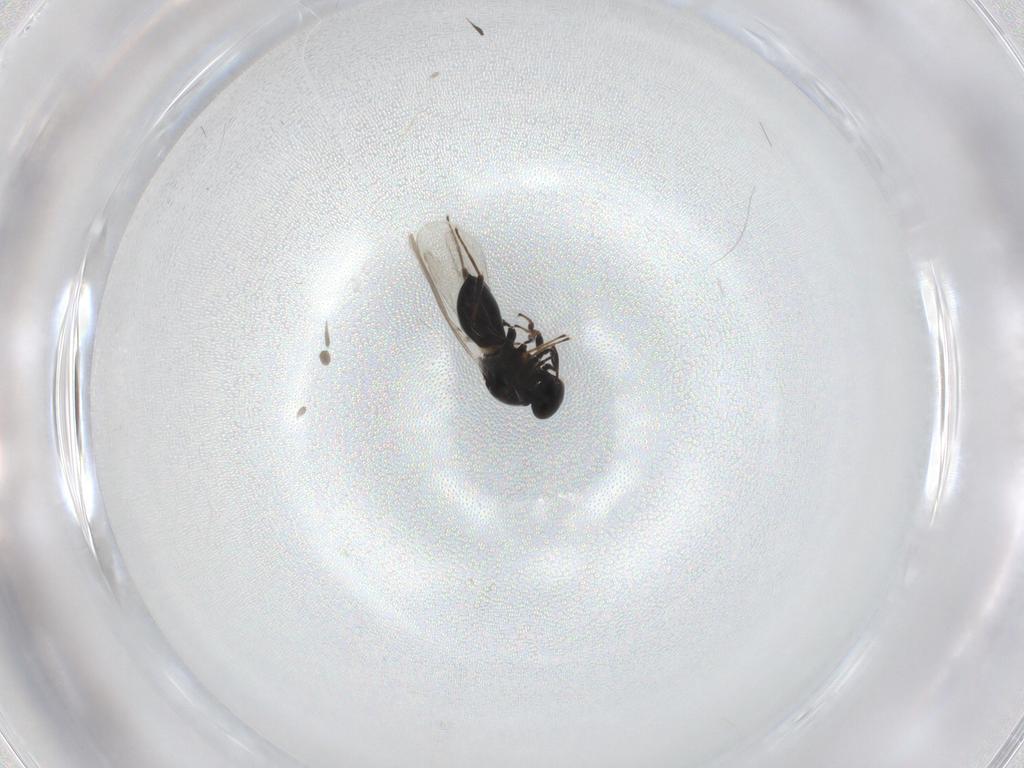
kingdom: Animalia
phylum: Arthropoda
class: Insecta
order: Hymenoptera
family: Platygastridae
